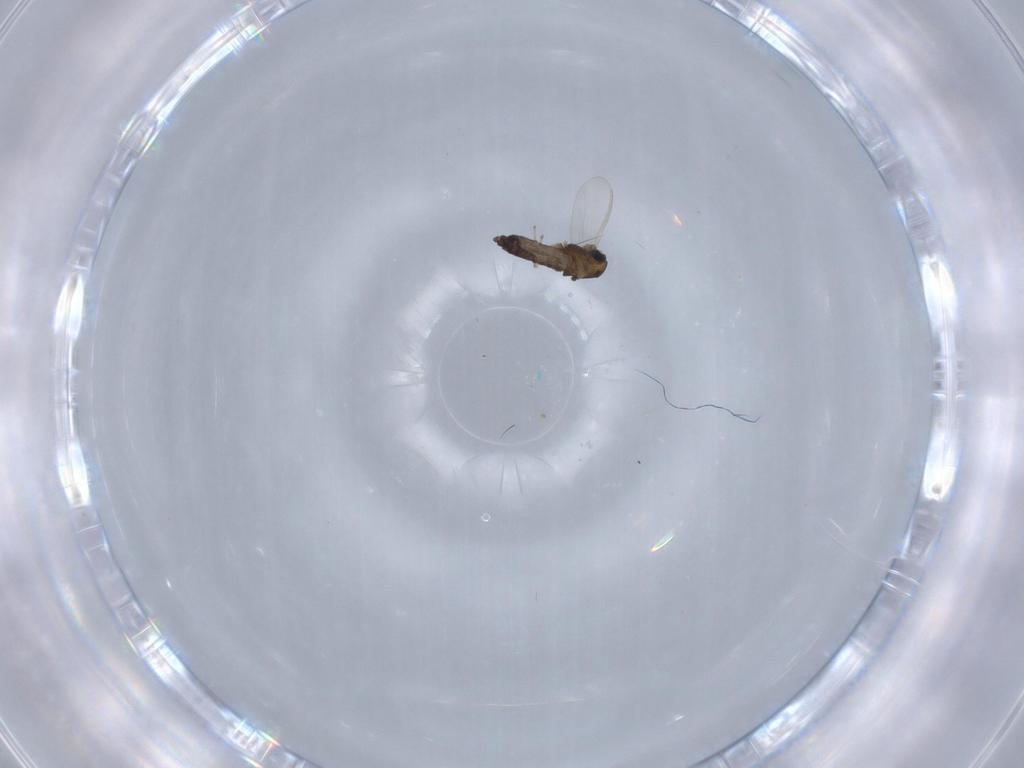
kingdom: Animalia
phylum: Arthropoda
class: Insecta
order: Diptera
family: Chironomidae
